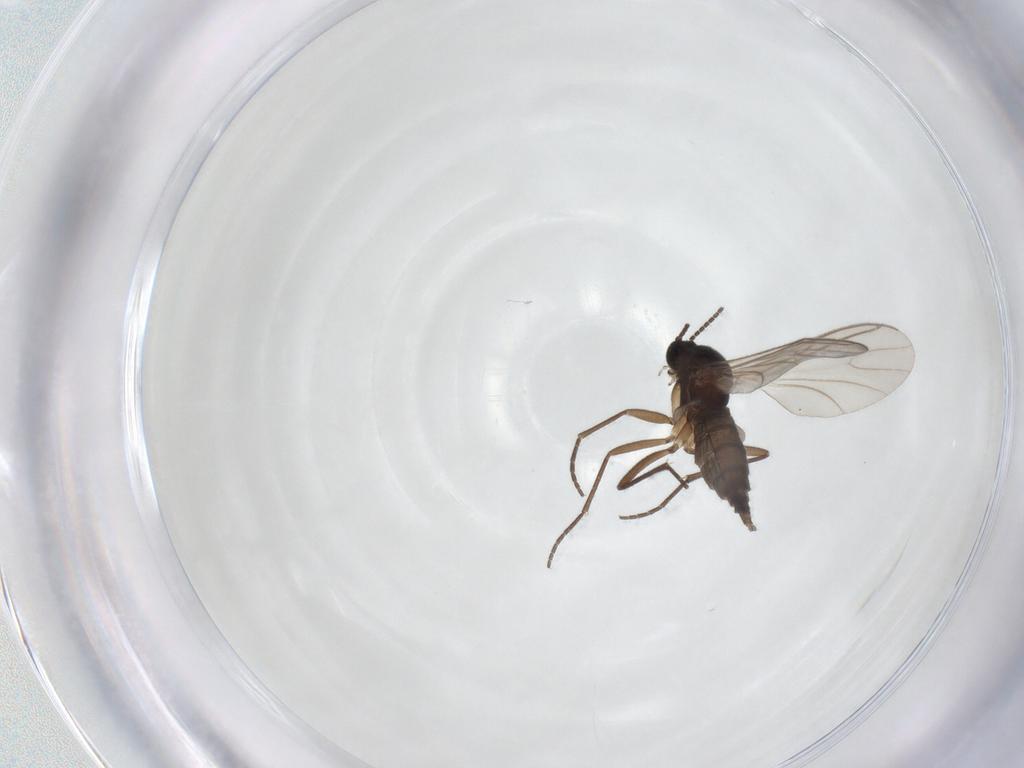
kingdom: Animalia
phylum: Arthropoda
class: Insecta
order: Diptera
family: Sciaridae
